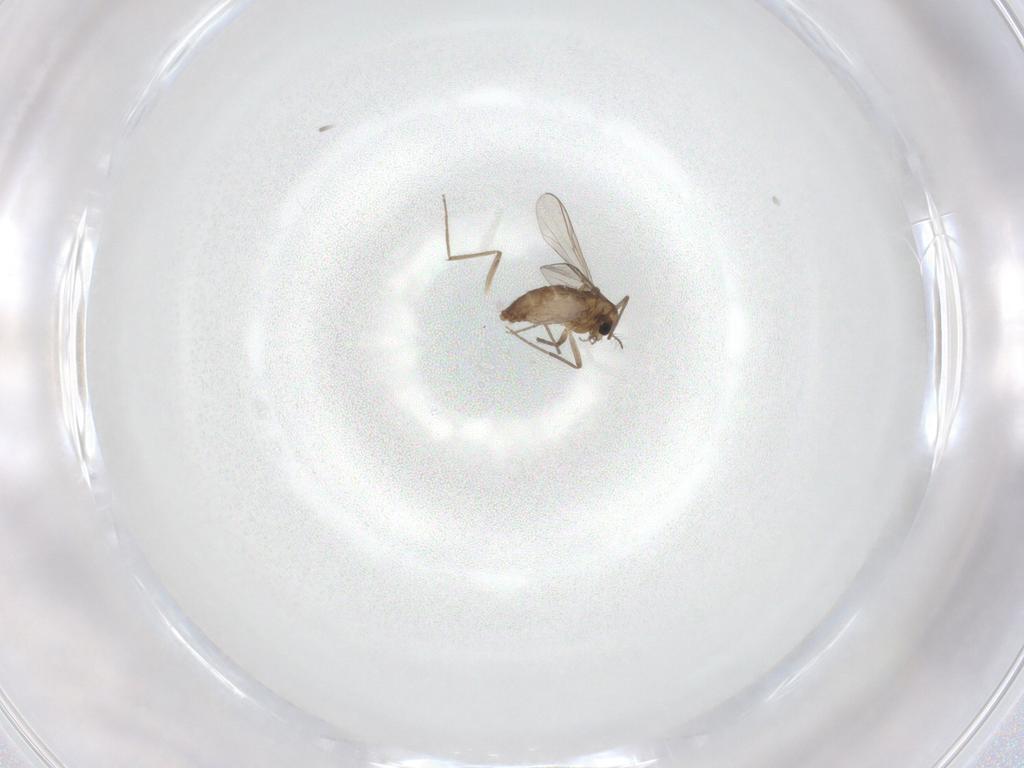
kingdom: Animalia
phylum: Arthropoda
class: Insecta
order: Diptera
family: Chironomidae
